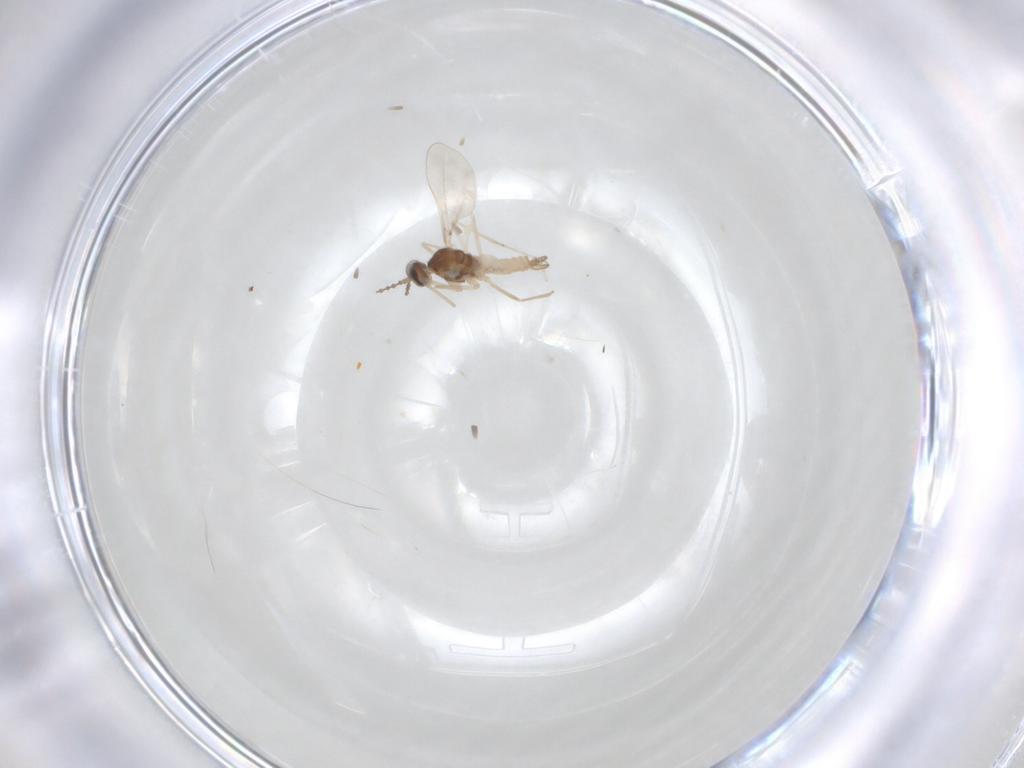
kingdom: Animalia
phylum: Arthropoda
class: Insecta
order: Diptera
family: Cecidomyiidae
